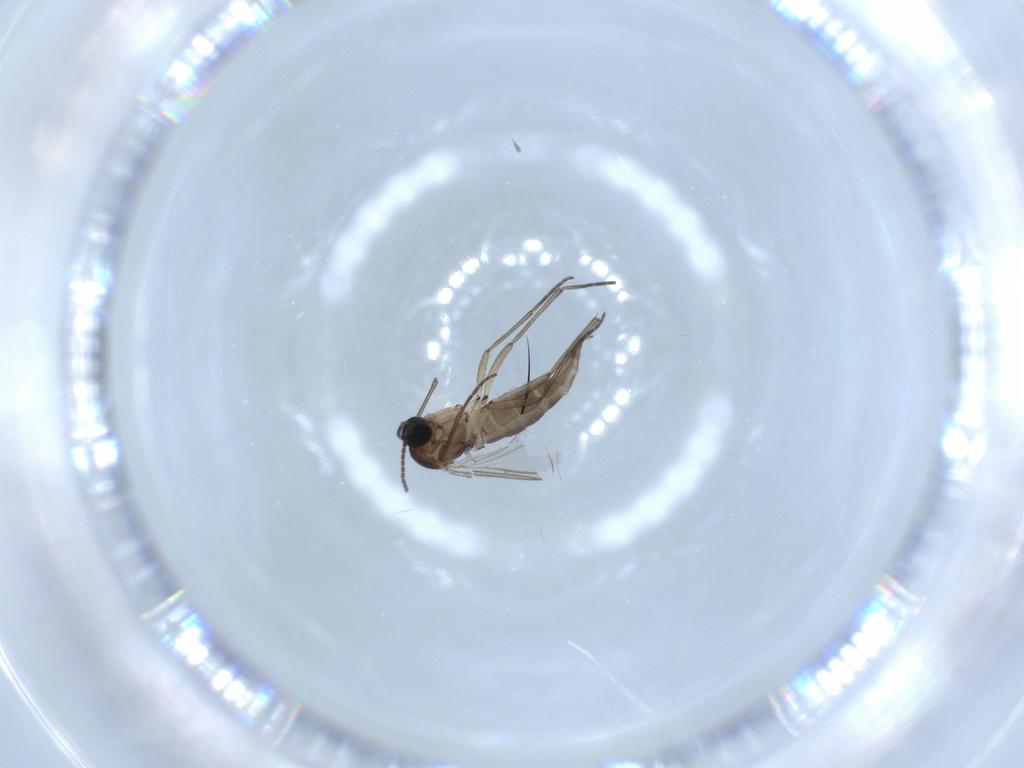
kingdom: Animalia
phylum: Arthropoda
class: Insecta
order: Diptera
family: Sciaridae
